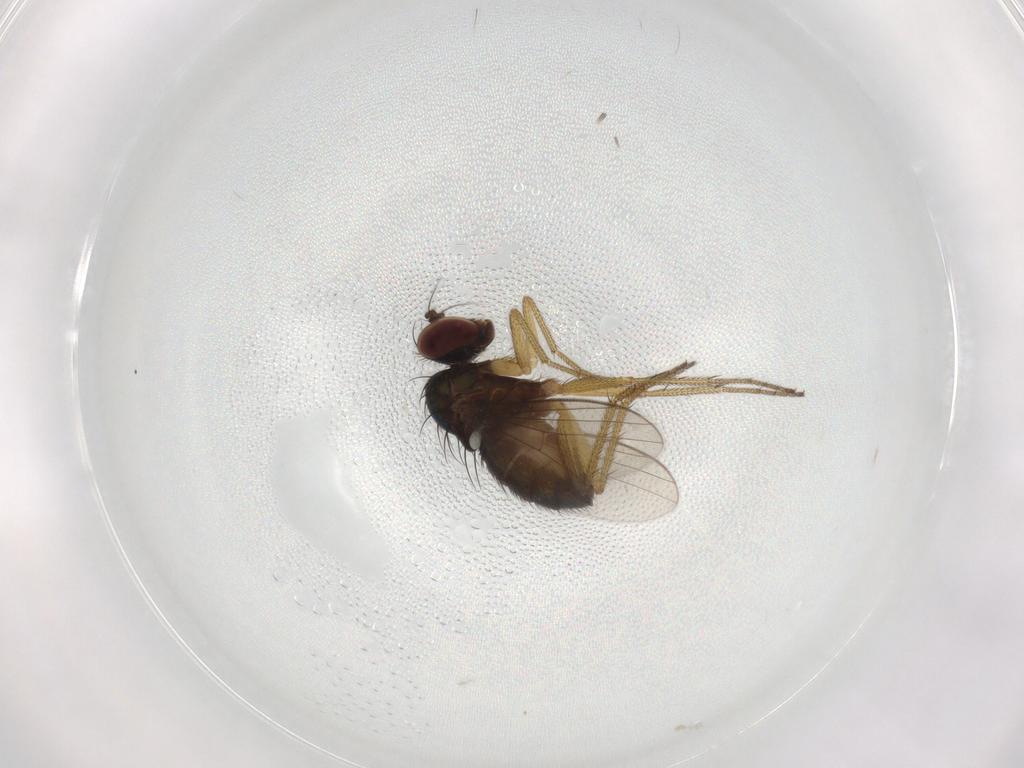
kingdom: Animalia
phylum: Arthropoda
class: Insecta
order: Diptera
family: Dolichopodidae
